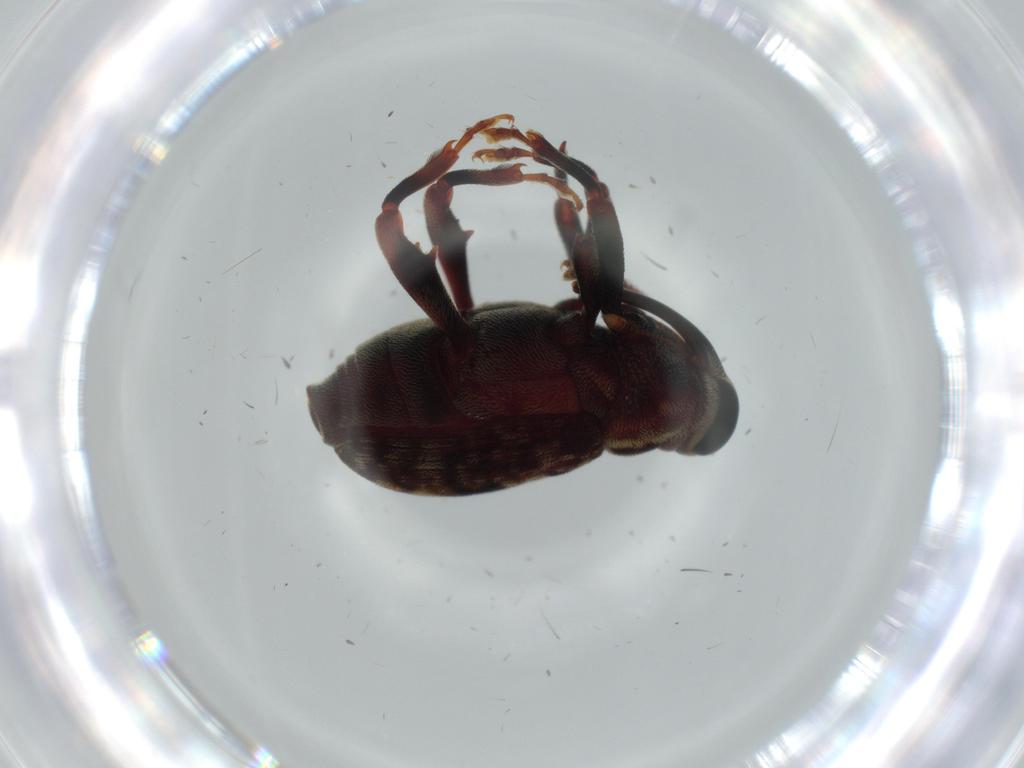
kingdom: Animalia
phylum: Arthropoda
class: Insecta
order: Coleoptera
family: Curculionidae
